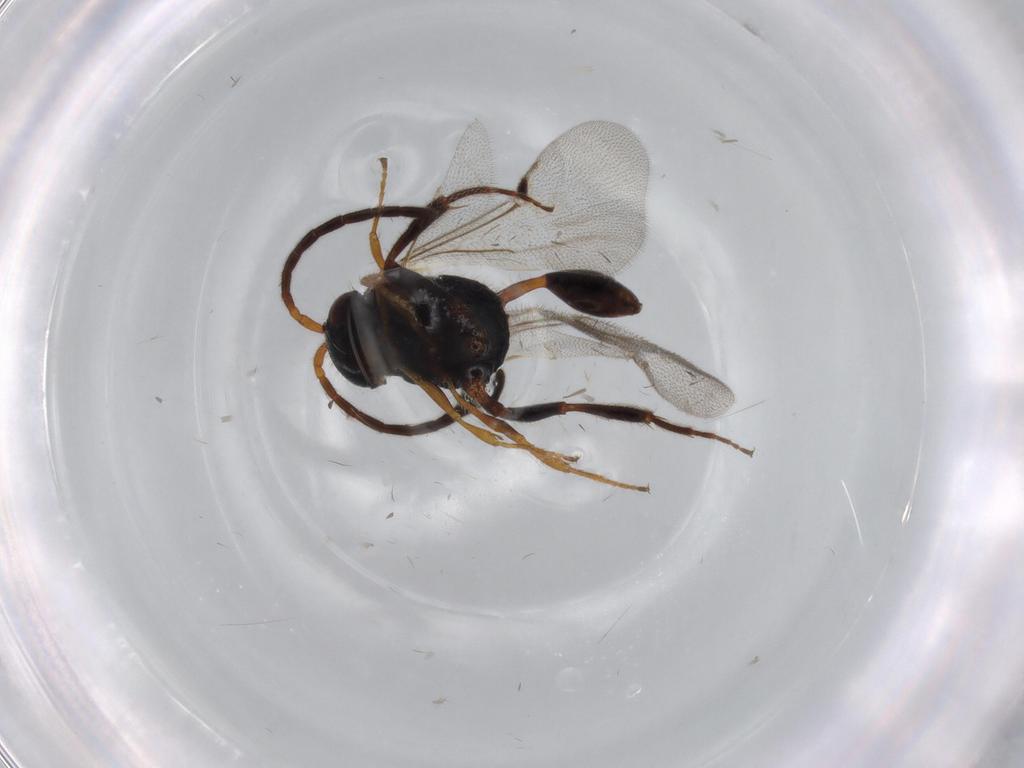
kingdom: Animalia
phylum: Arthropoda
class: Insecta
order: Hymenoptera
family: Evaniidae
